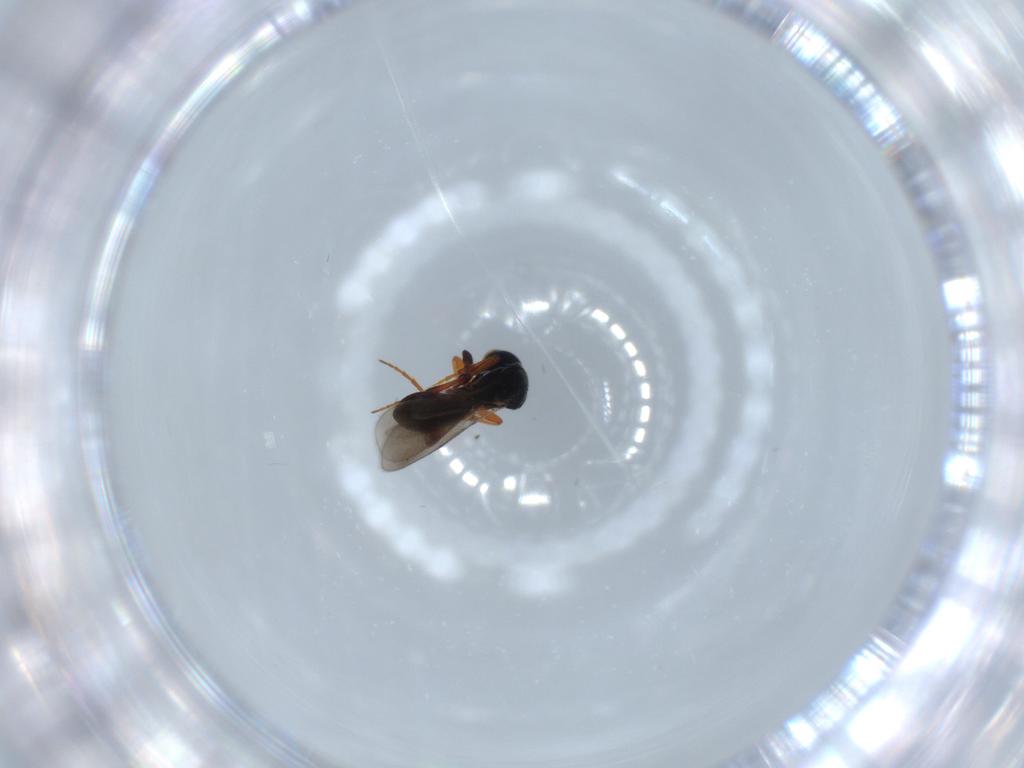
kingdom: Animalia
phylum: Arthropoda
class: Insecta
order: Hymenoptera
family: Platygastridae
